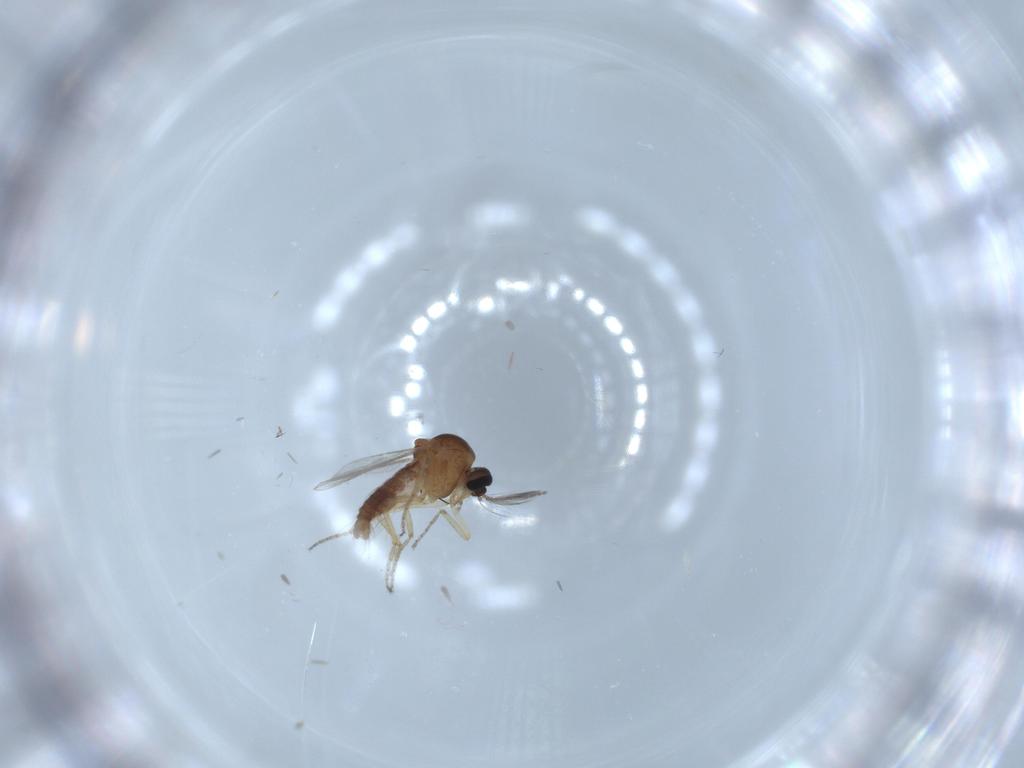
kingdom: Animalia
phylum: Arthropoda
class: Insecta
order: Diptera
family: Ceratopogonidae
